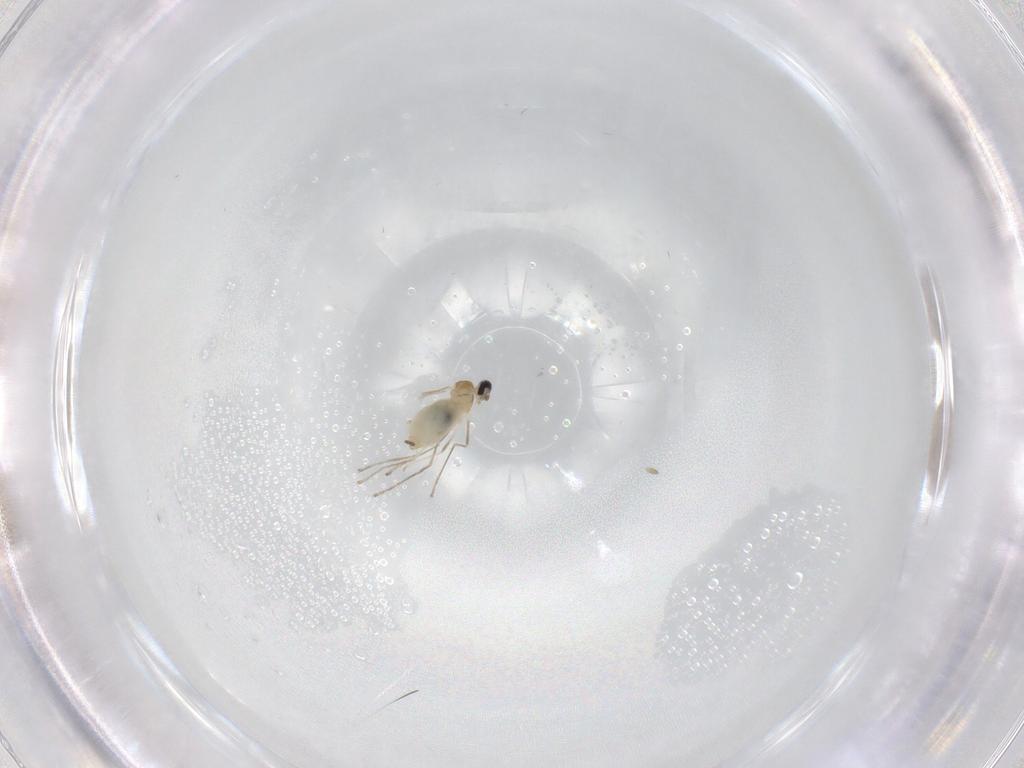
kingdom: Animalia
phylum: Arthropoda
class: Insecta
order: Diptera
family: Cecidomyiidae
